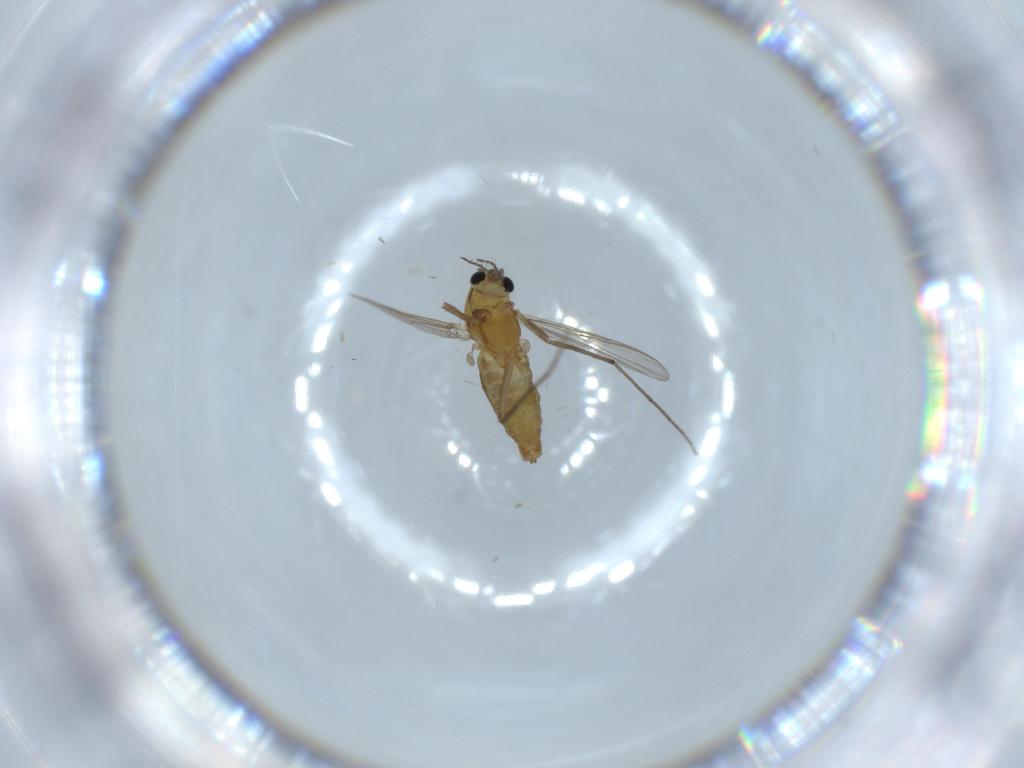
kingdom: Animalia
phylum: Arthropoda
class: Insecta
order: Diptera
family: Chironomidae
